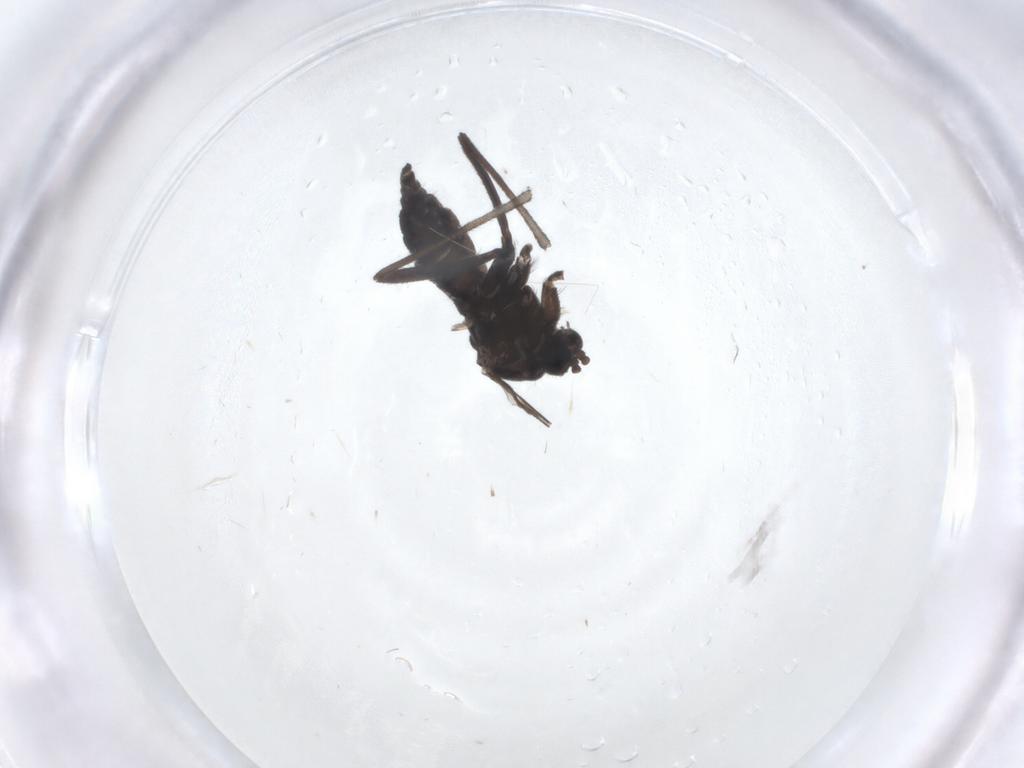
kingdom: Animalia
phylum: Arthropoda
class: Insecta
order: Diptera
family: Sciaridae
